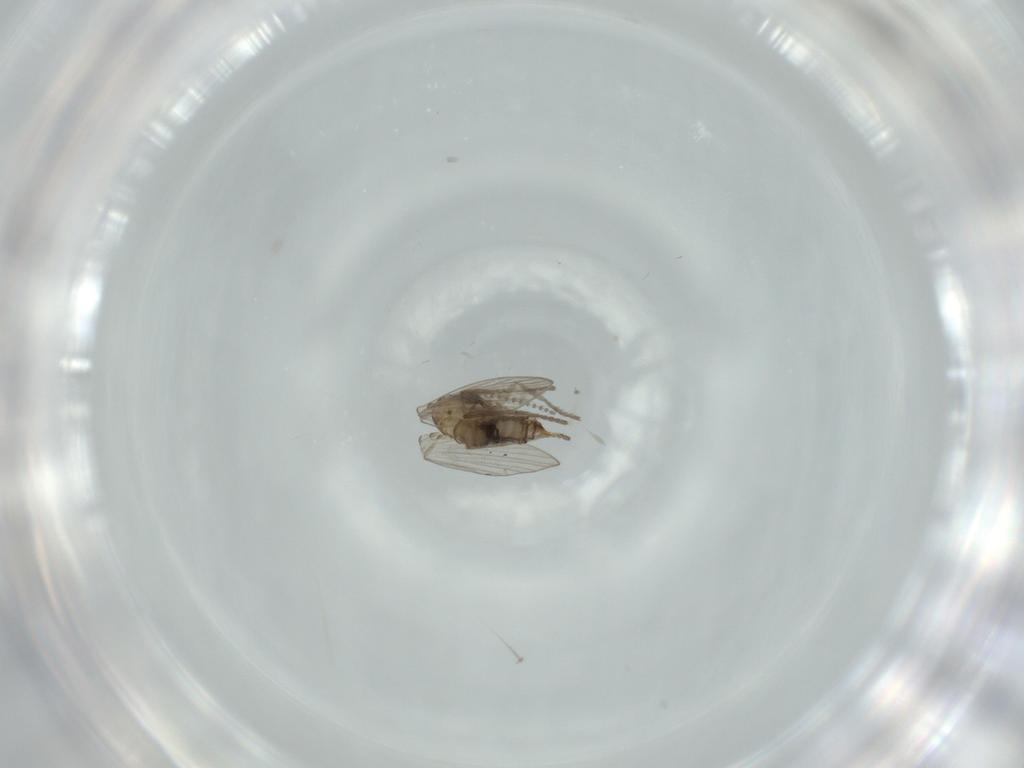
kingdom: Animalia
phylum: Arthropoda
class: Insecta
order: Diptera
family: Psychodidae
